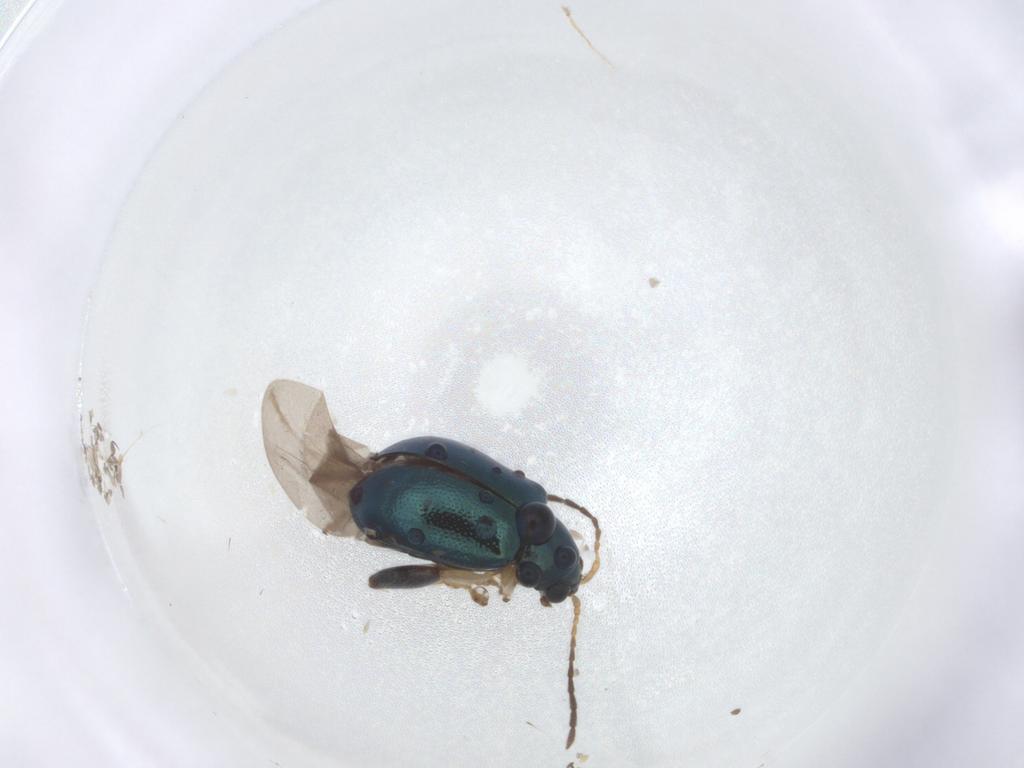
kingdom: Animalia
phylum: Arthropoda
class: Insecta
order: Coleoptera
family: Chrysomelidae
